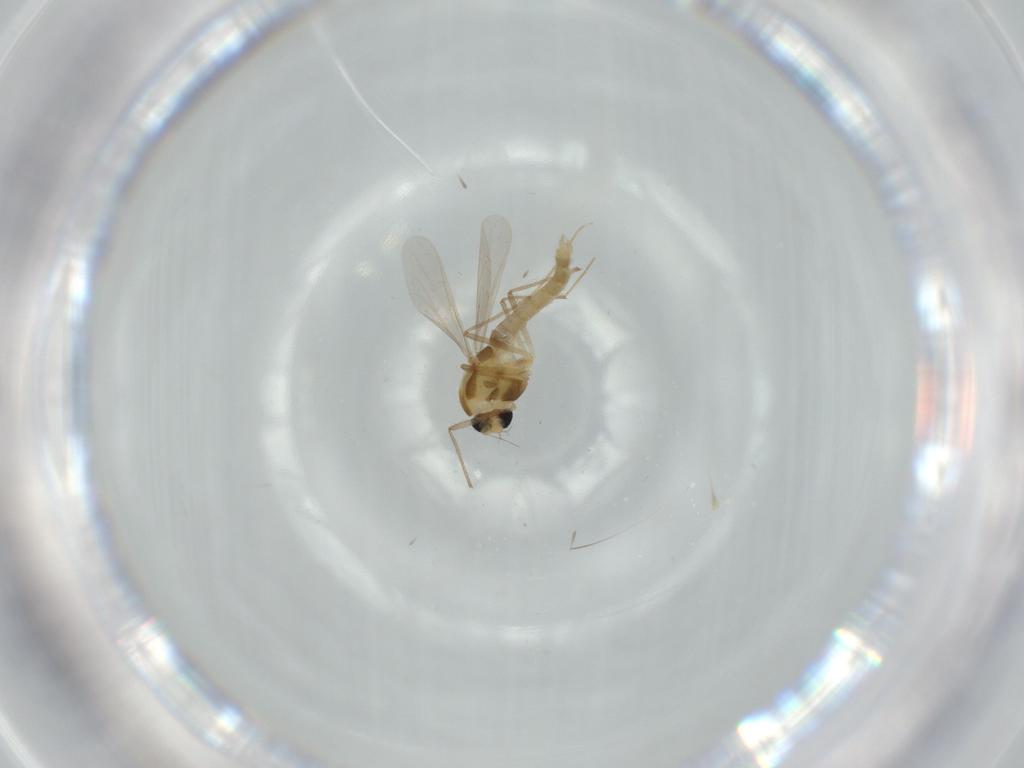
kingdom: Animalia
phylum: Arthropoda
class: Insecta
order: Diptera
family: Chironomidae
